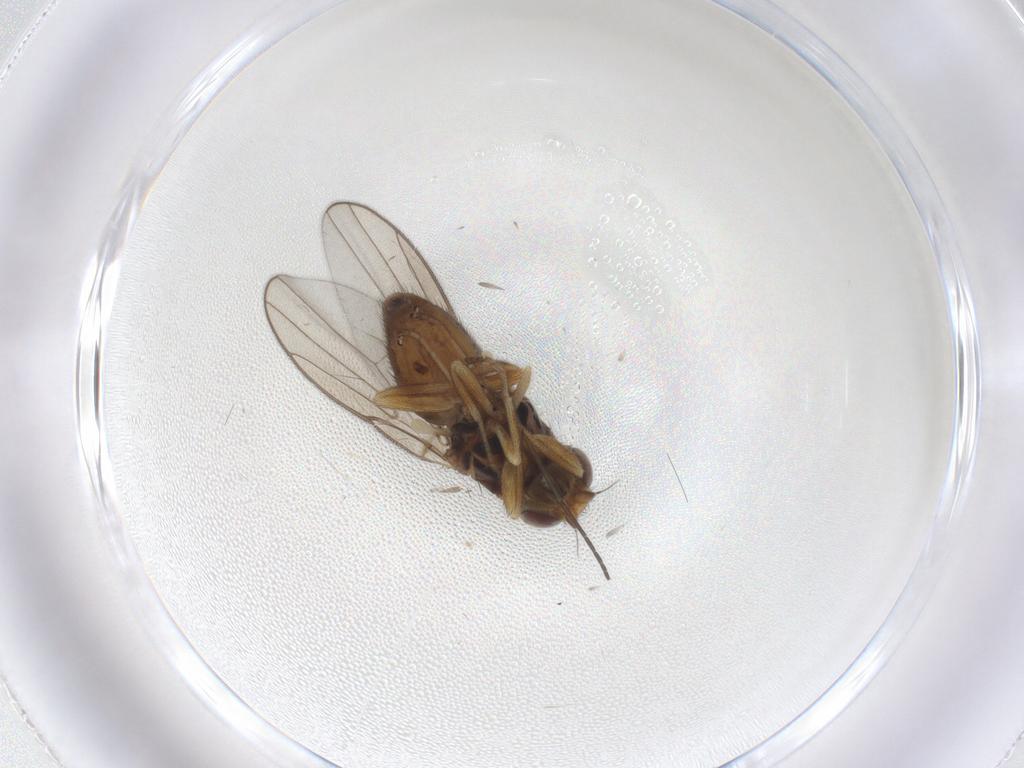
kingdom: Animalia
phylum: Arthropoda
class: Insecta
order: Diptera
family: Chloropidae
